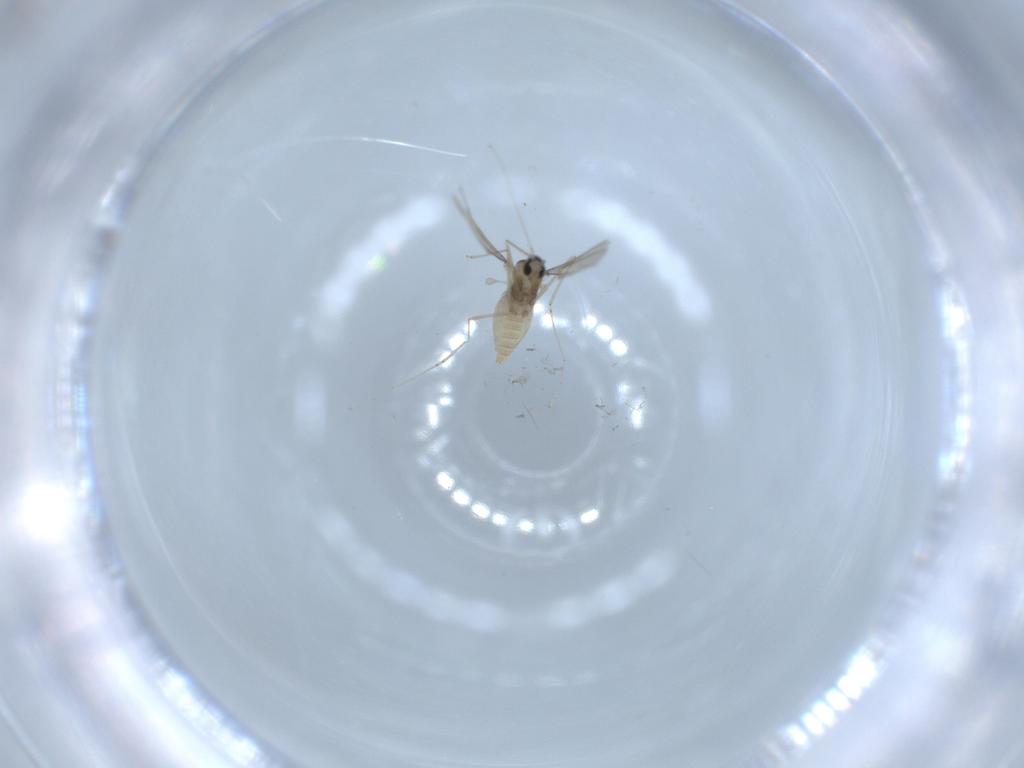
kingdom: Animalia
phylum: Arthropoda
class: Insecta
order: Diptera
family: Cecidomyiidae
